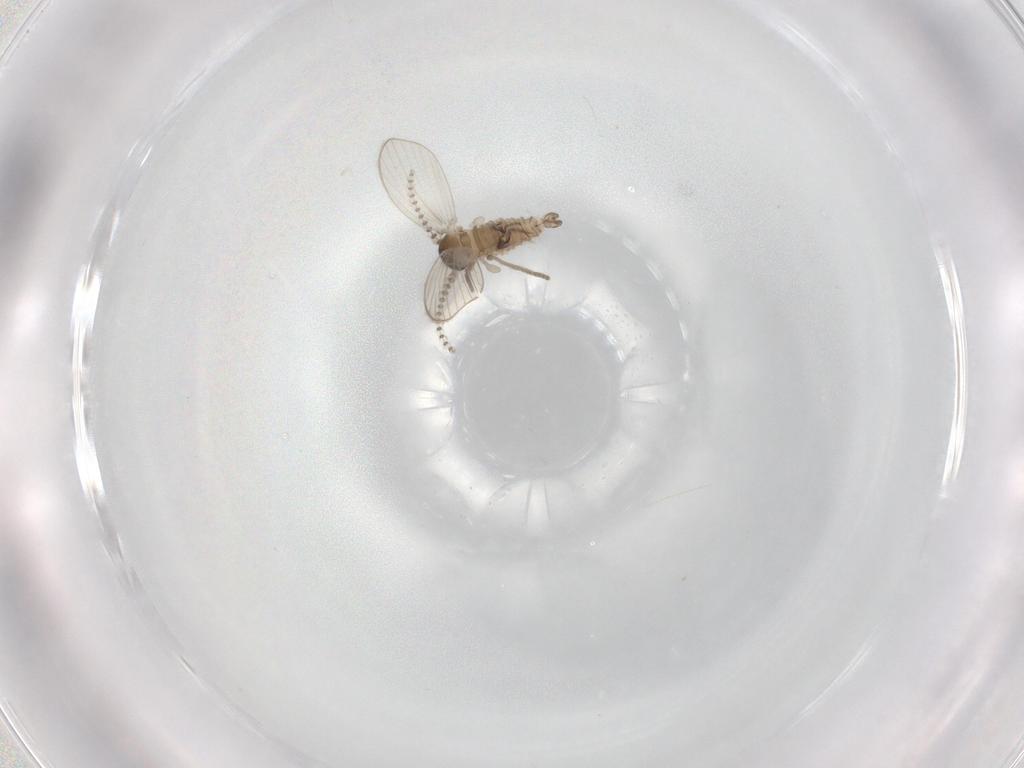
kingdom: Animalia
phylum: Arthropoda
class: Insecta
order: Diptera
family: Psychodidae
